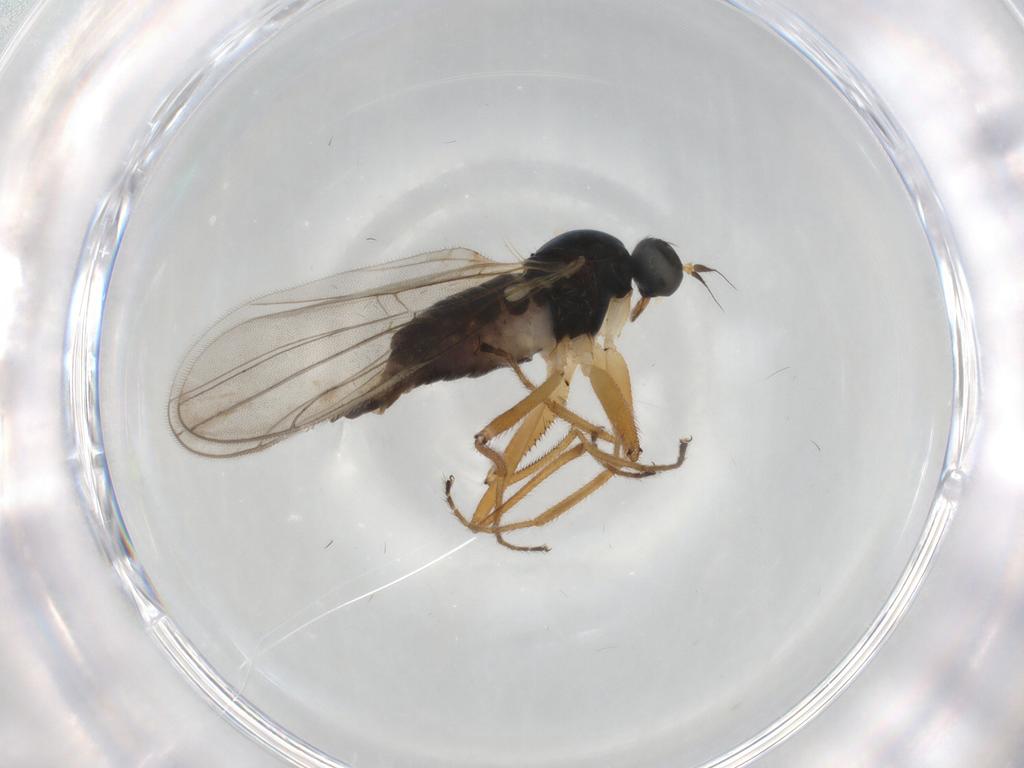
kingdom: Animalia
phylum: Arthropoda
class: Insecta
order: Diptera
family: Hybotidae
